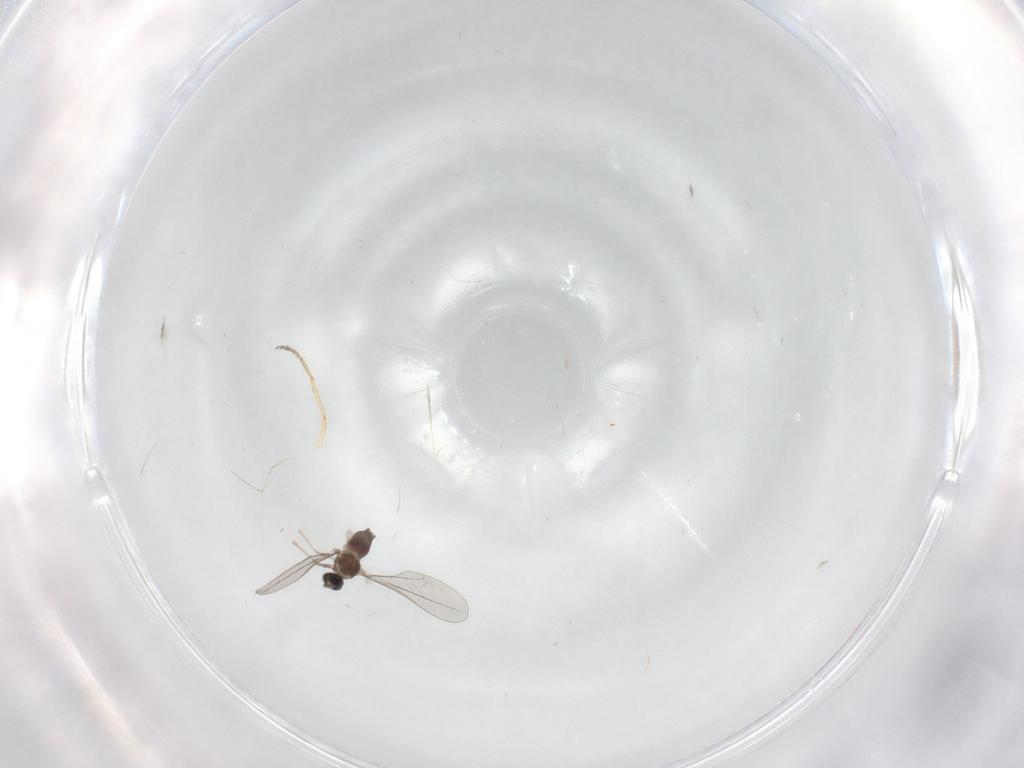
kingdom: Animalia
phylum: Arthropoda
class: Insecta
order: Diptera
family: Cecidomyiidae
